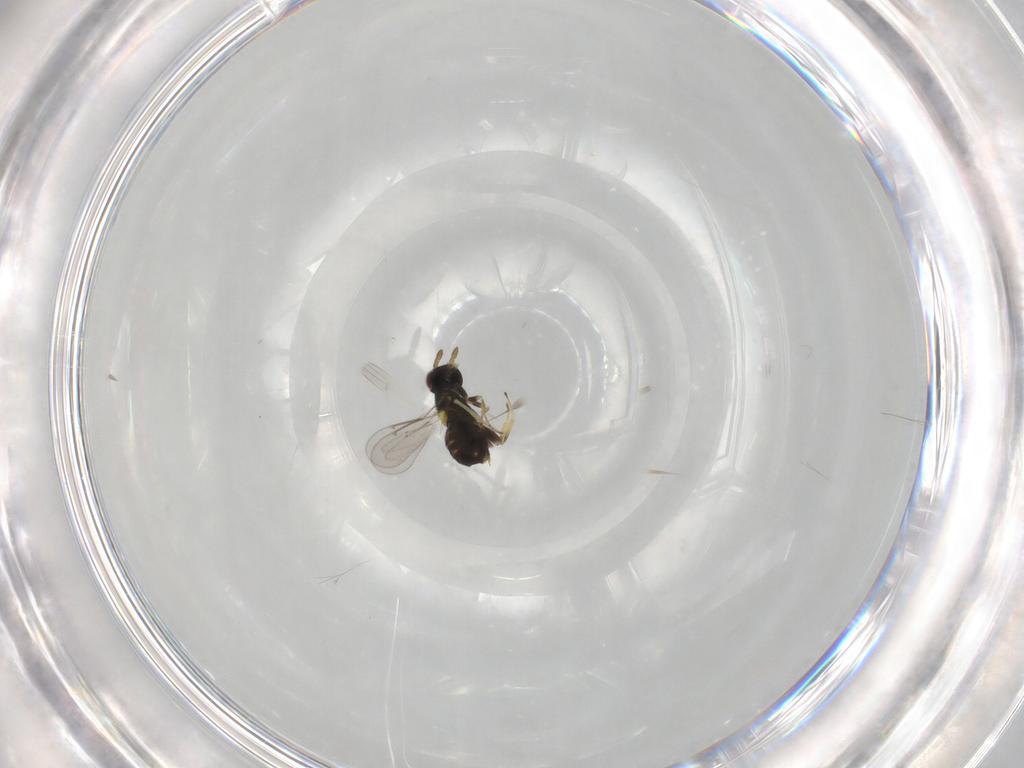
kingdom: Animalia
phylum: Arthropoda
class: Insecta
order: Hymenoptera
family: Aphelinidae
